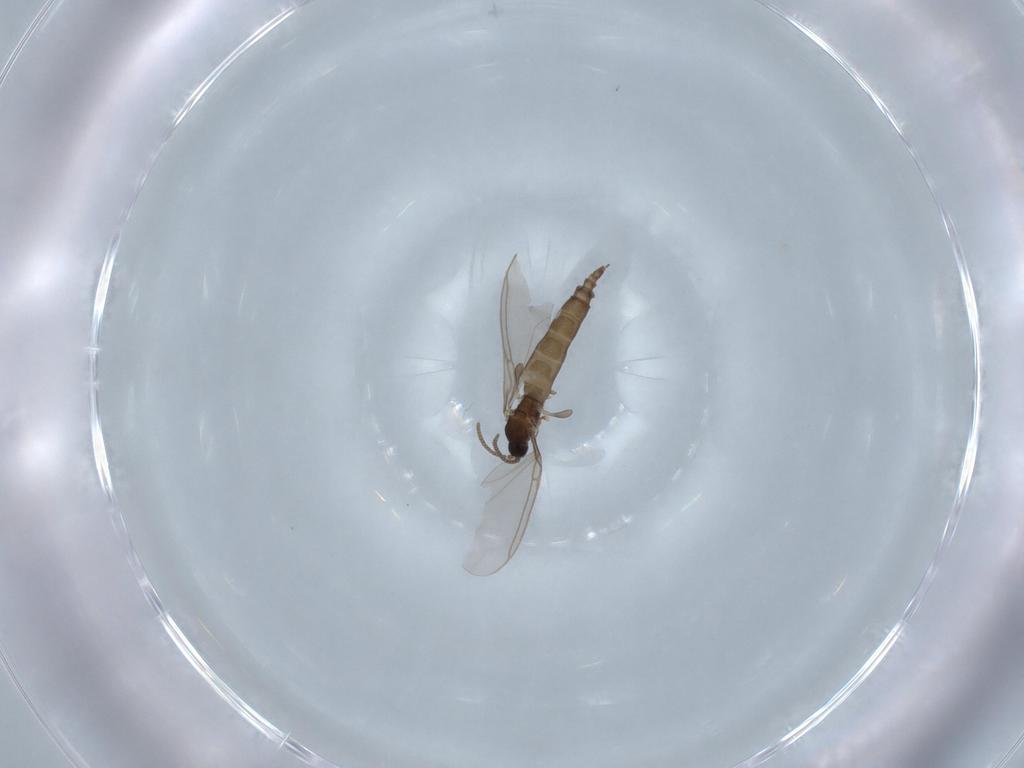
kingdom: Animalia
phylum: Arthropoda
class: Insecta
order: Diptera
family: Sciaridae
